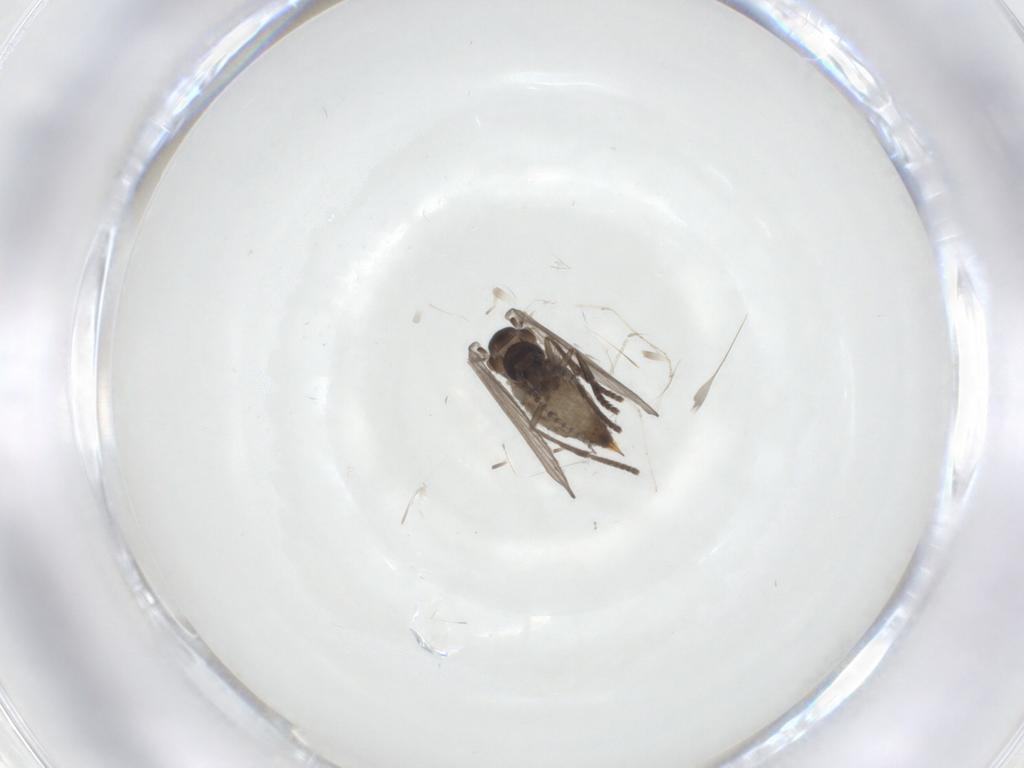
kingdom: Animalia
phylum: Arthropoda
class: Insecta
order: Diptera
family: Psychodidae
